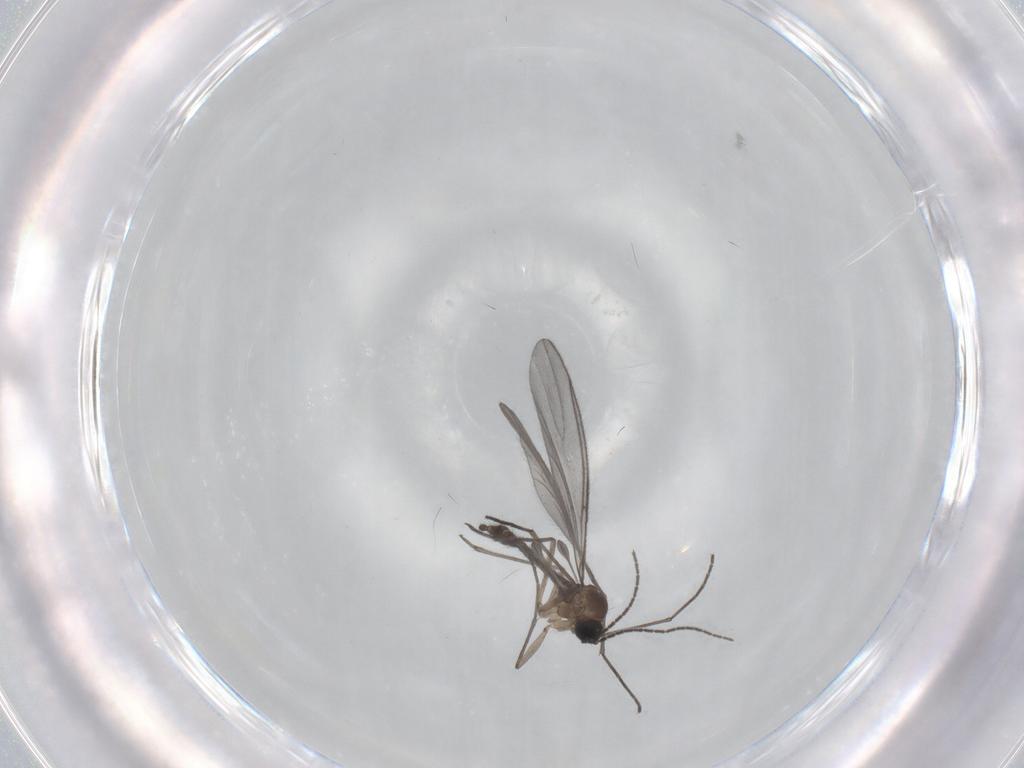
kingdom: Animalia
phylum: Arthropoda
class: Insecta
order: Diptera
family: Sciaridae
